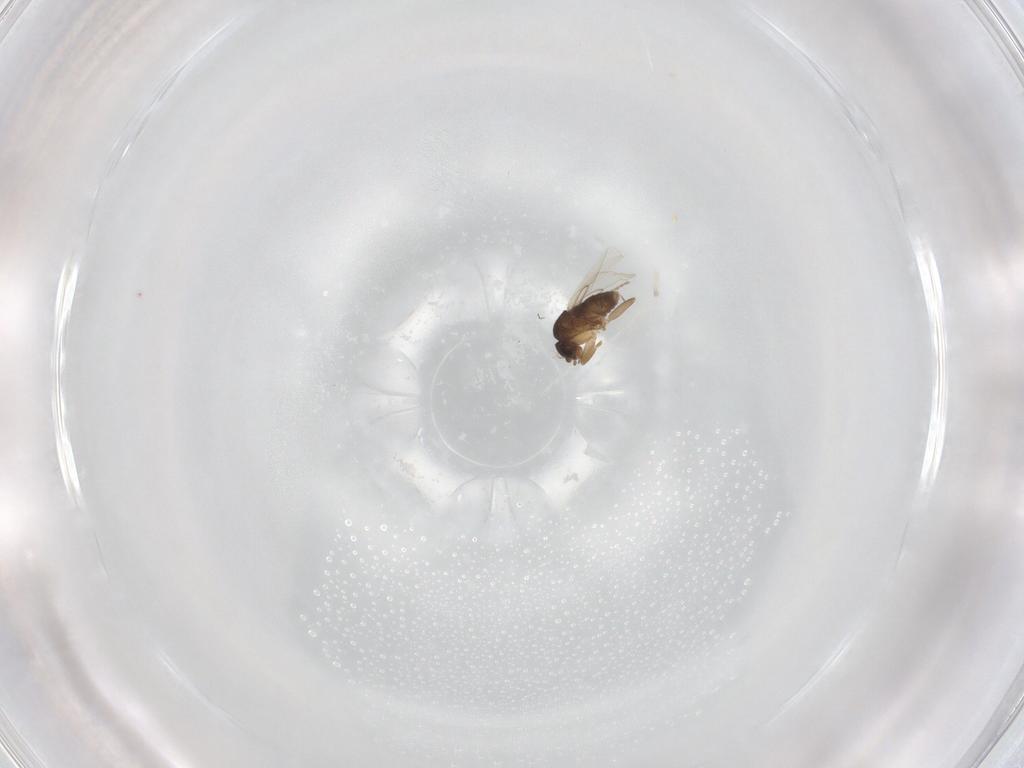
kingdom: Animalia
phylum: Arthropoda
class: Insecta
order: Diptera
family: Phoridae
